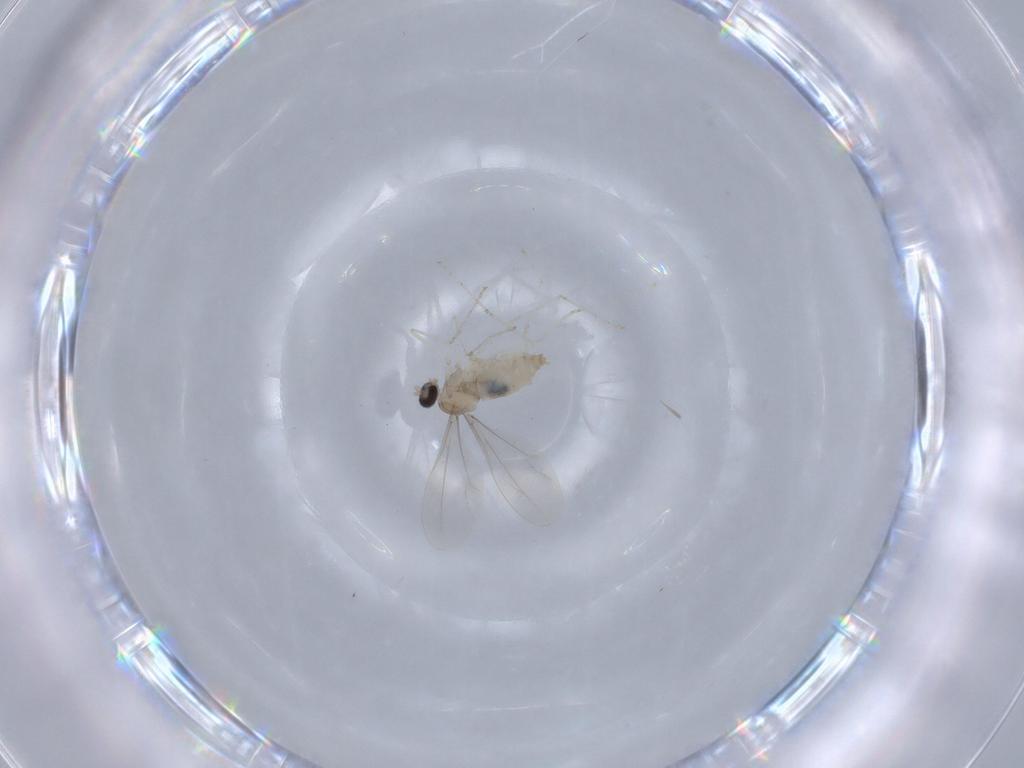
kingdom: Animalia
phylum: Arthropoda
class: Insecta
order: Diptera
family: Cecidomyiidae
